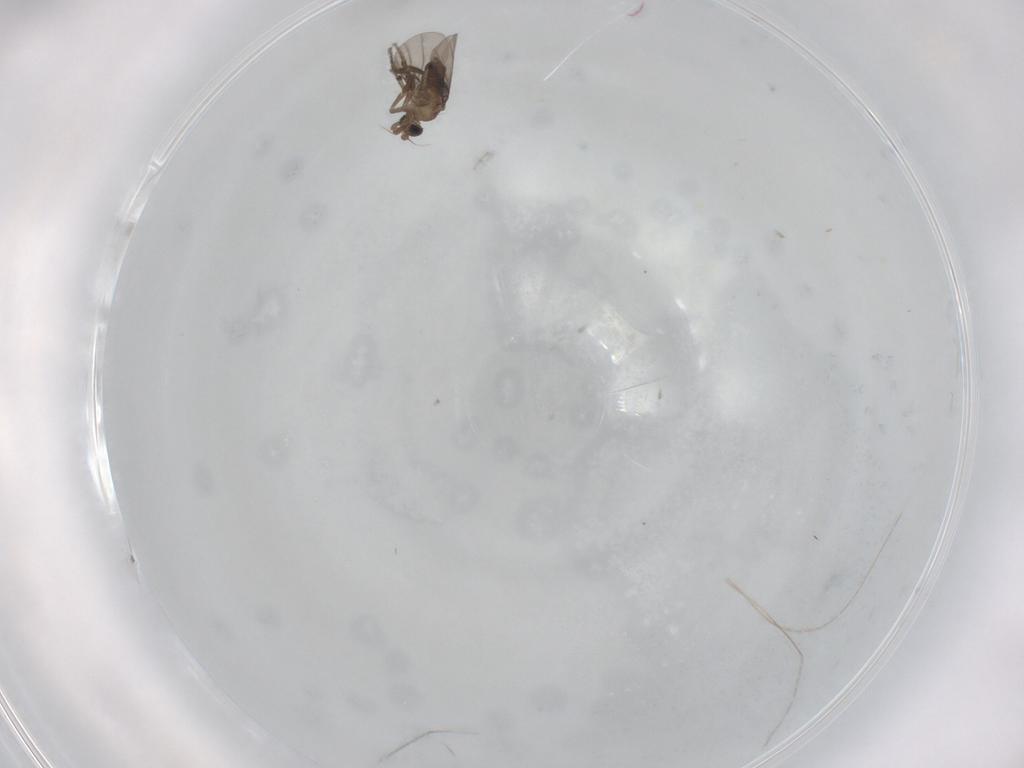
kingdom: Animalia
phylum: Arthropoda
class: Insecta
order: Diptera
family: Phoridae
